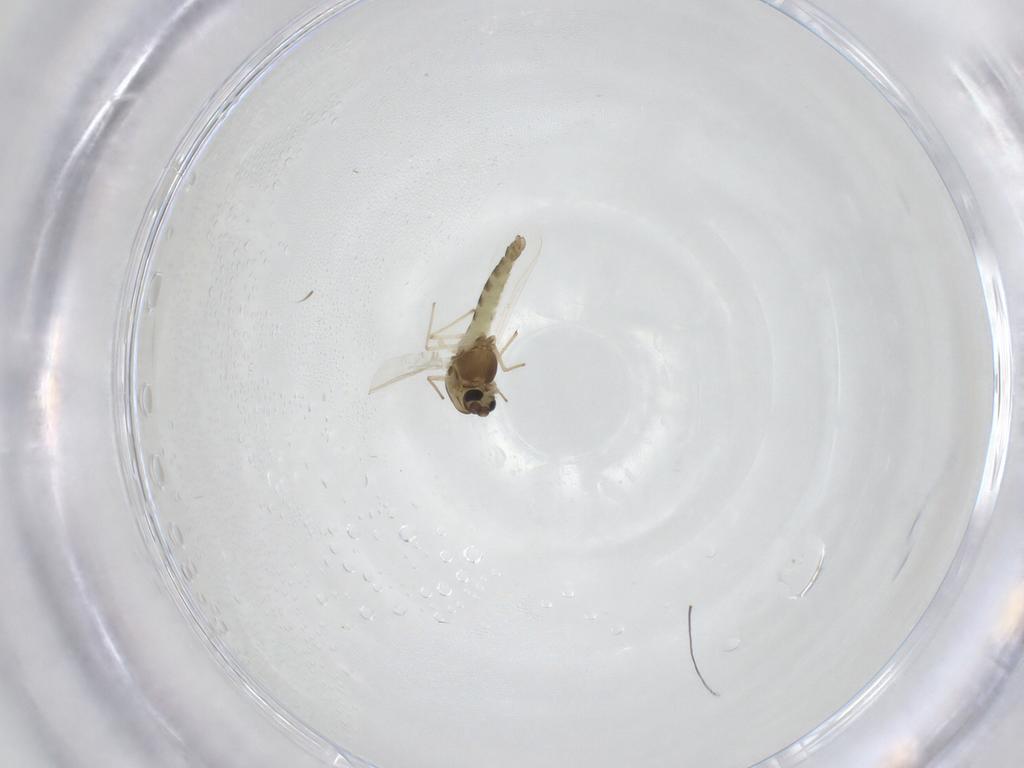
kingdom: Animalia
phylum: Arthropoda
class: Insecta
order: Diptera
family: Chironomidae
